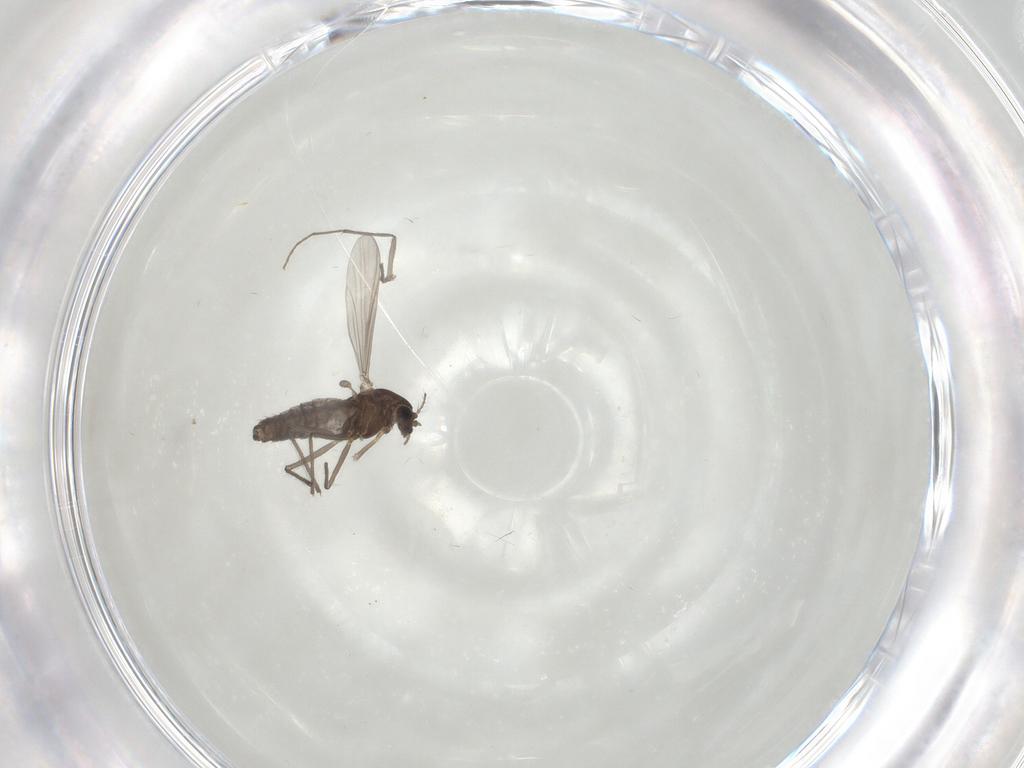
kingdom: Animalia
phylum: Arthropoda
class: Insecta
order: Diptera
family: Chironomidae
